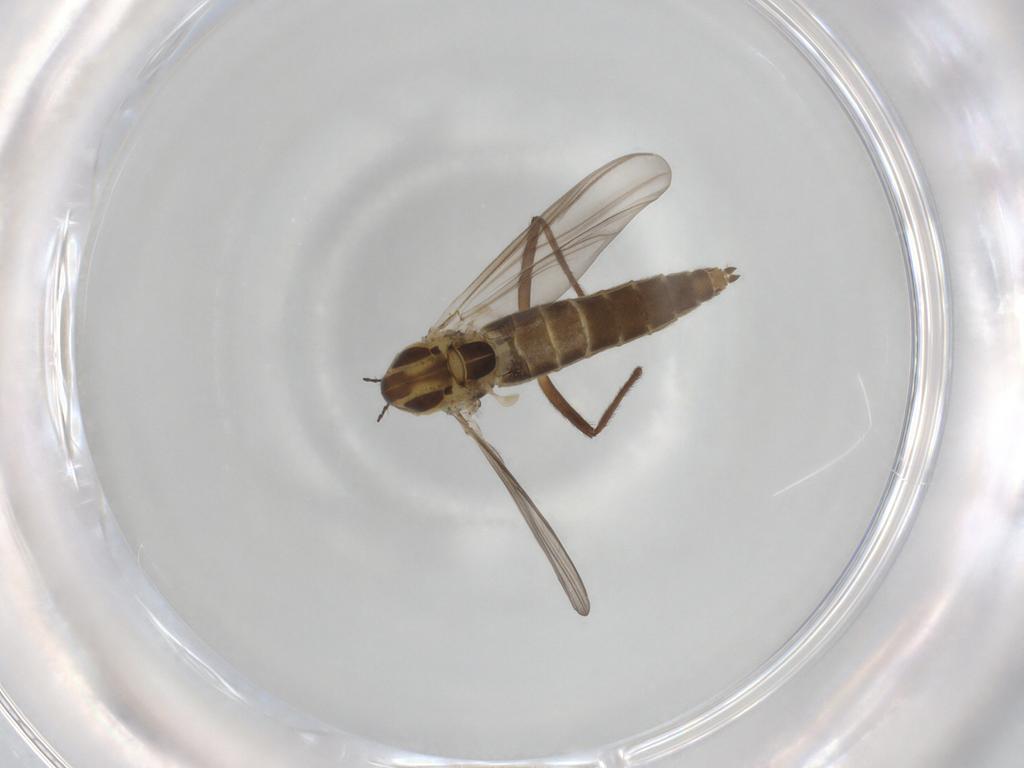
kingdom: Animalia
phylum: Arthropoda
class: Insecta
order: Diptera
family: Chironomidae
